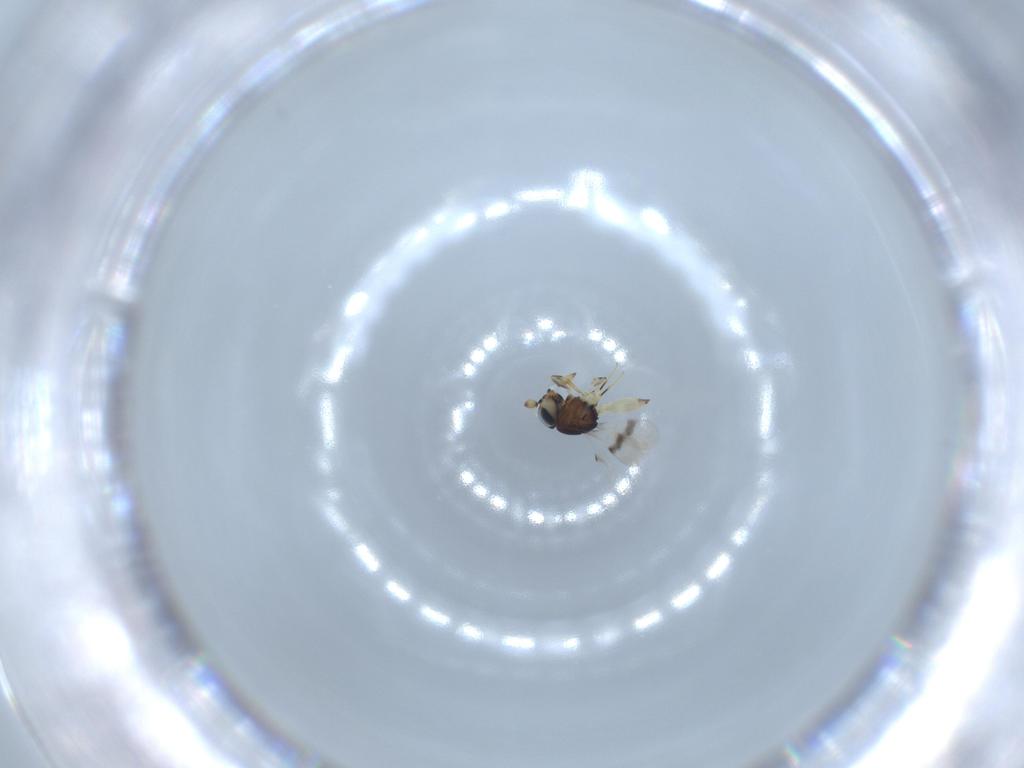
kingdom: Animalia
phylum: Arthropoda
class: Insecta
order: Hymenoptera
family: Scelionidae
